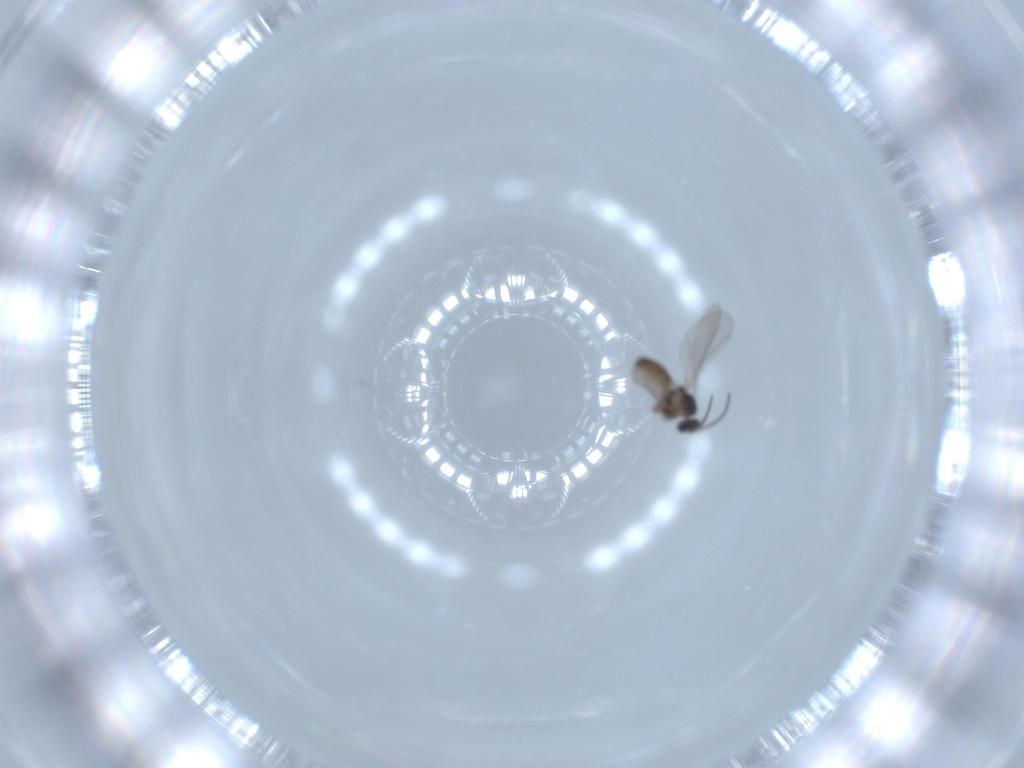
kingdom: Animalia
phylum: Arthropoda
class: Insecta
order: Diptera
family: Cecidomyiidae
